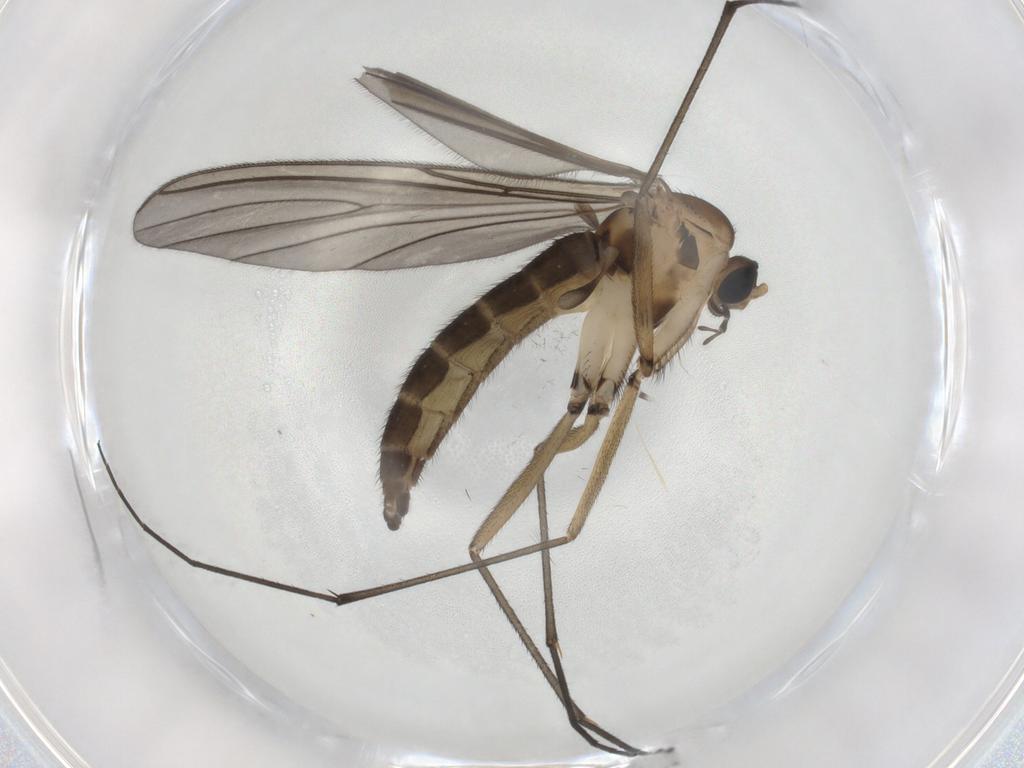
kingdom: Animalia
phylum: Arthropoda
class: Insecta
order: Diptera
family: Sciaridae
